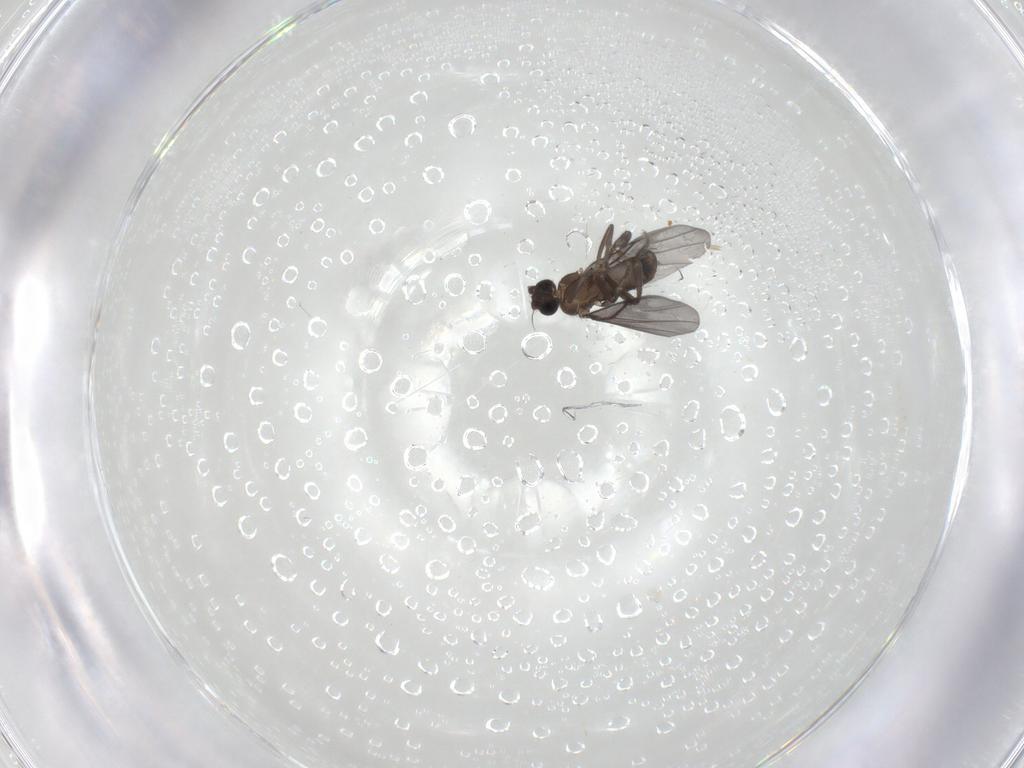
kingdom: Animalia
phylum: Arthropoda
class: Insecta
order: Diptera
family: Phoridae
